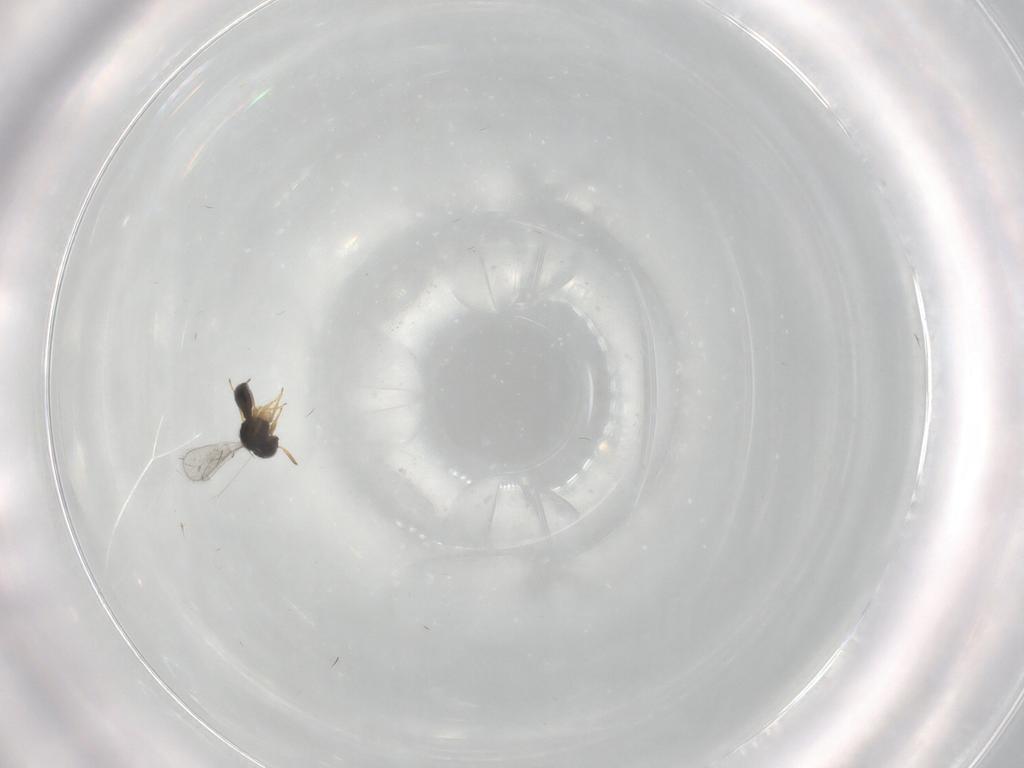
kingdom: Animalia
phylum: Arthropoda
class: Insecta
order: Hymenoptera
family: Scelionidae
